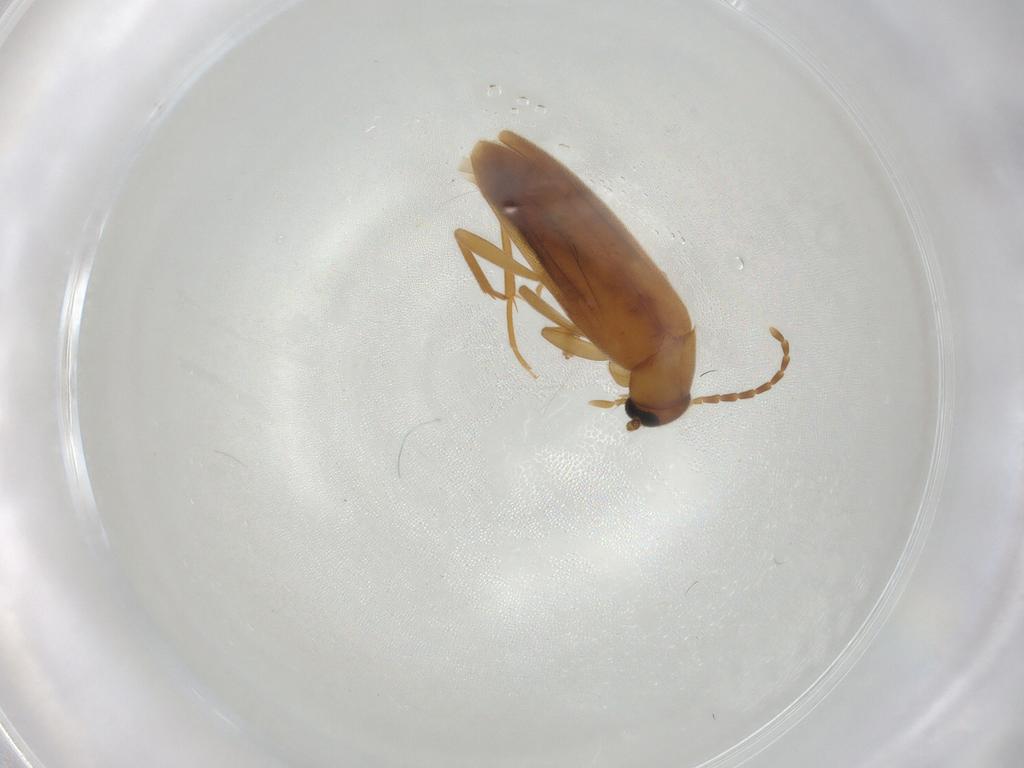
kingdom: Animalia
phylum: Arthropoda
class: Insecta
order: Coleoptera
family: Scraptiidae
